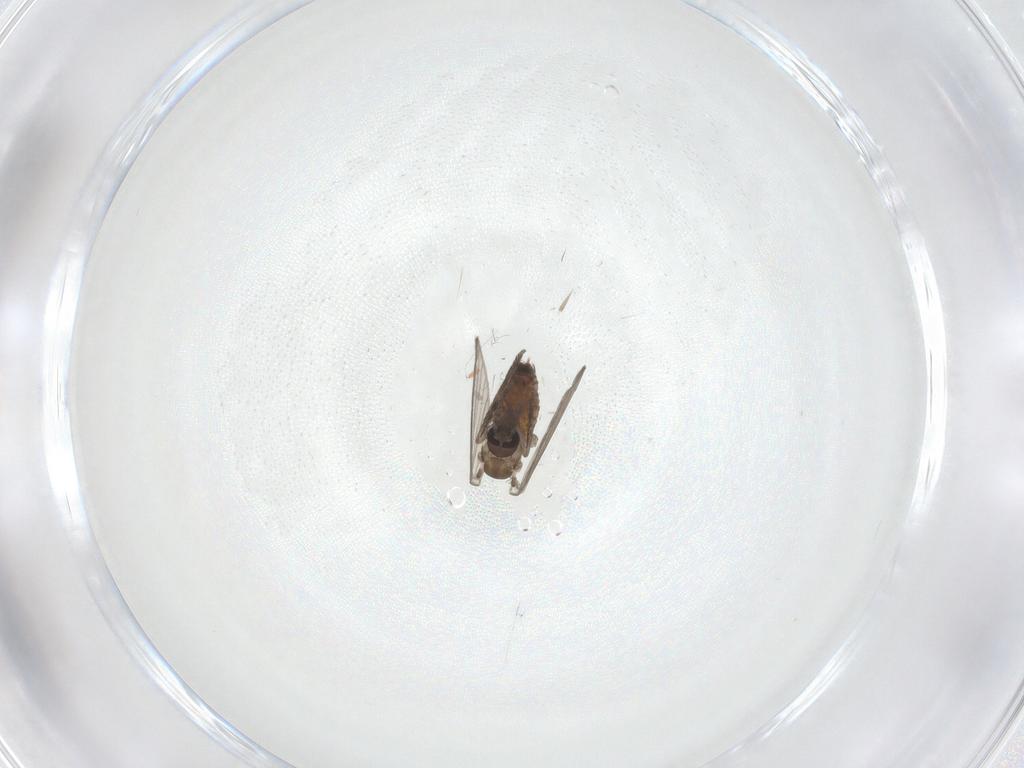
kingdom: Animalia
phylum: Arthropoda
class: Insecta
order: Diptera
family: Psychodidae
